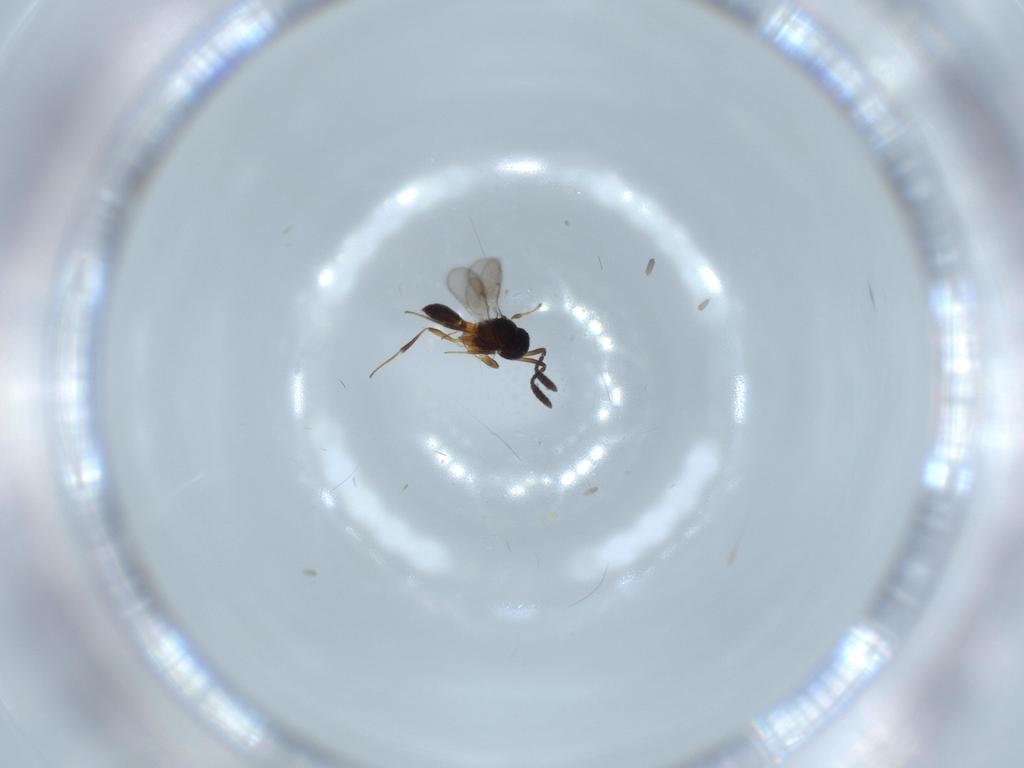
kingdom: Animalia
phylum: Arthropoda
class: Insecta
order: Hymenoptera
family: Scelionidae
